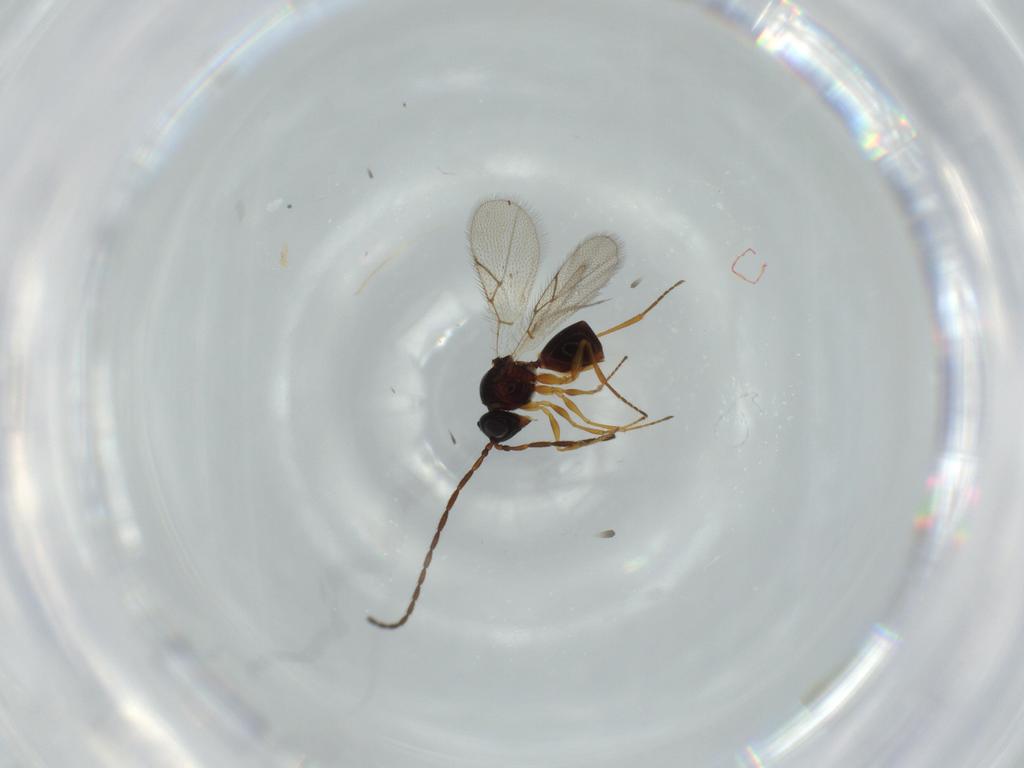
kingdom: Animalia
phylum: Arthropoda
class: Insecta
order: Hymenoptera
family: Figitidae
